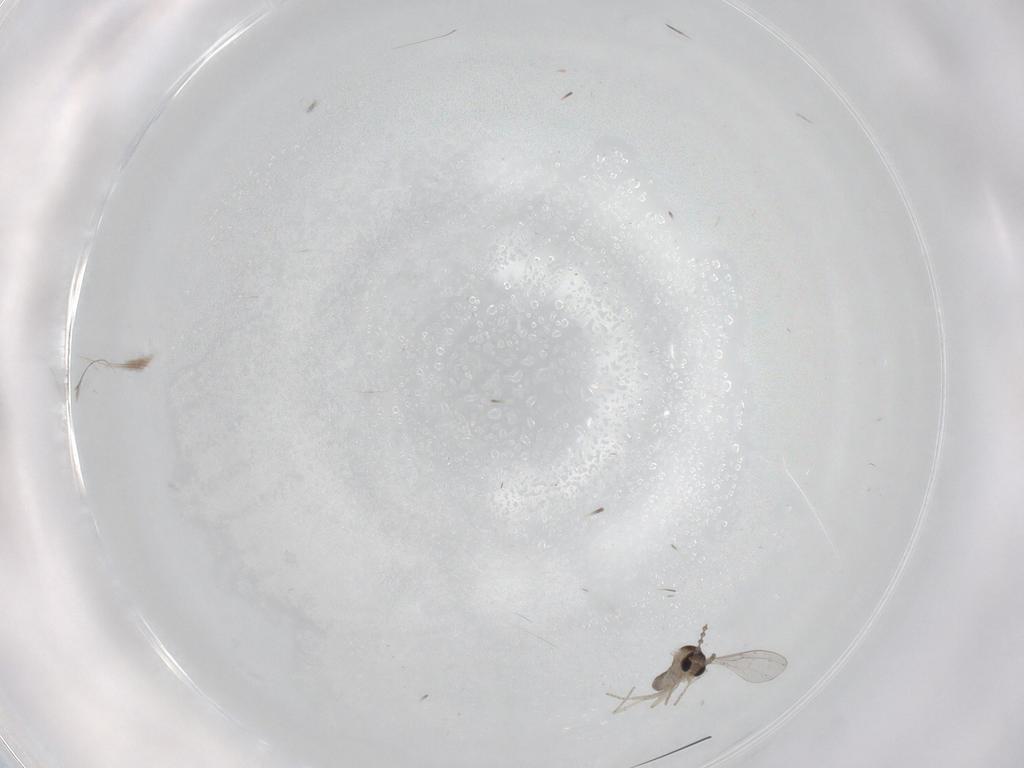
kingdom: Animalia
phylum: Arthropoda
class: Insecta
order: Diptera
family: Cecidomyiidae
